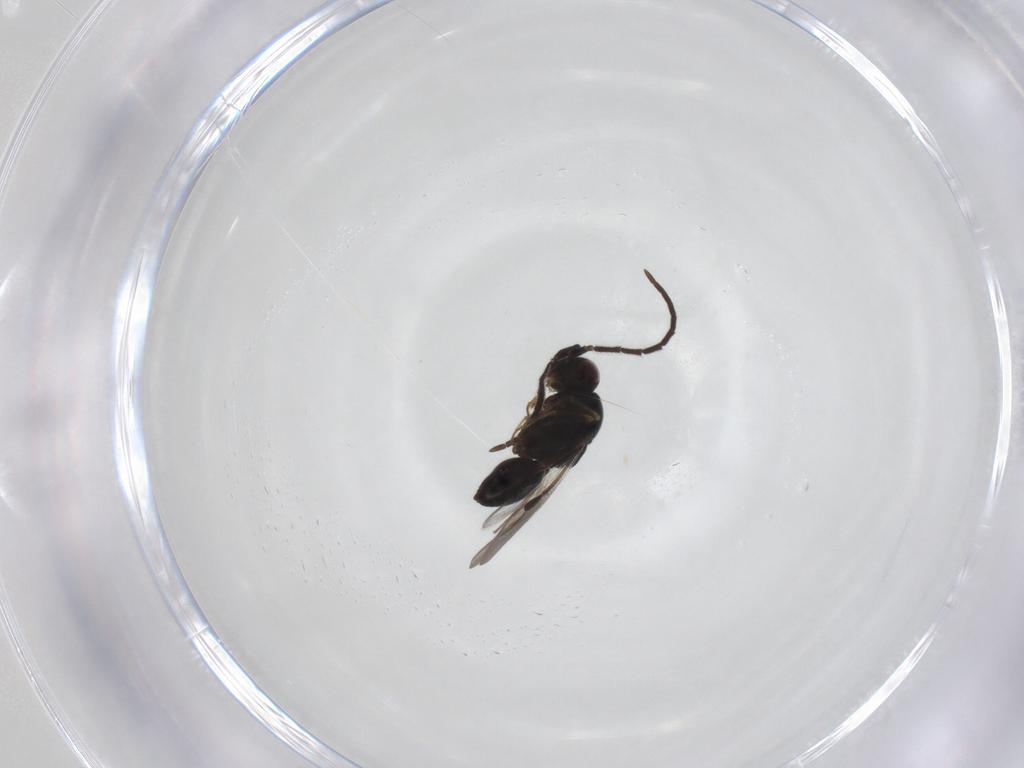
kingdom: Animalia
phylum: Arthropoda
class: Insecta
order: Hymenoptera
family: Megaspilidae
